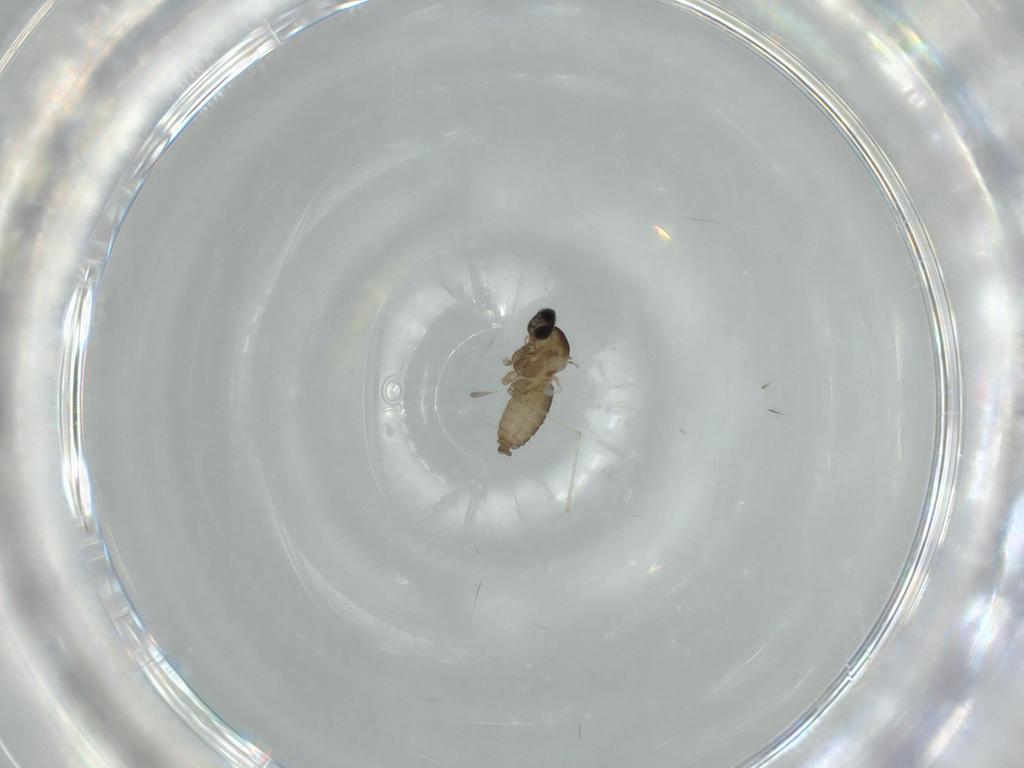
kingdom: Animalia
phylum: Arthropoda
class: Insecta
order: Diptera
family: Cecidomyiidae
